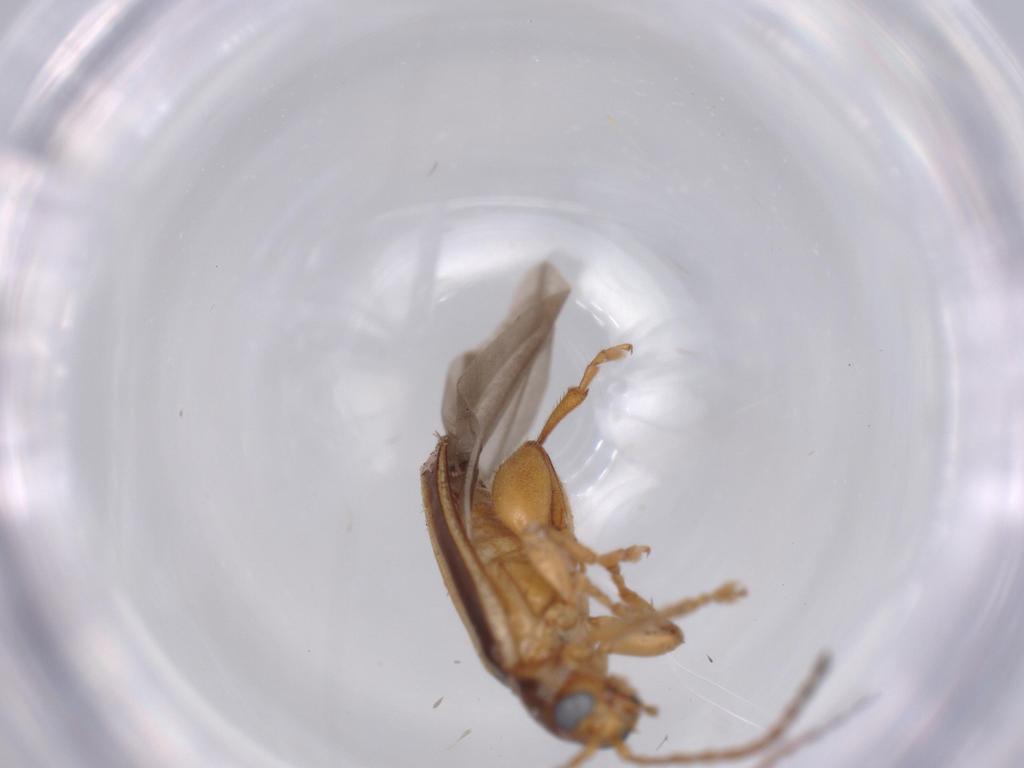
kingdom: Animalia
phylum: Arthropoda
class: Insecta
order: Coleoptera
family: Chrysomelidae
